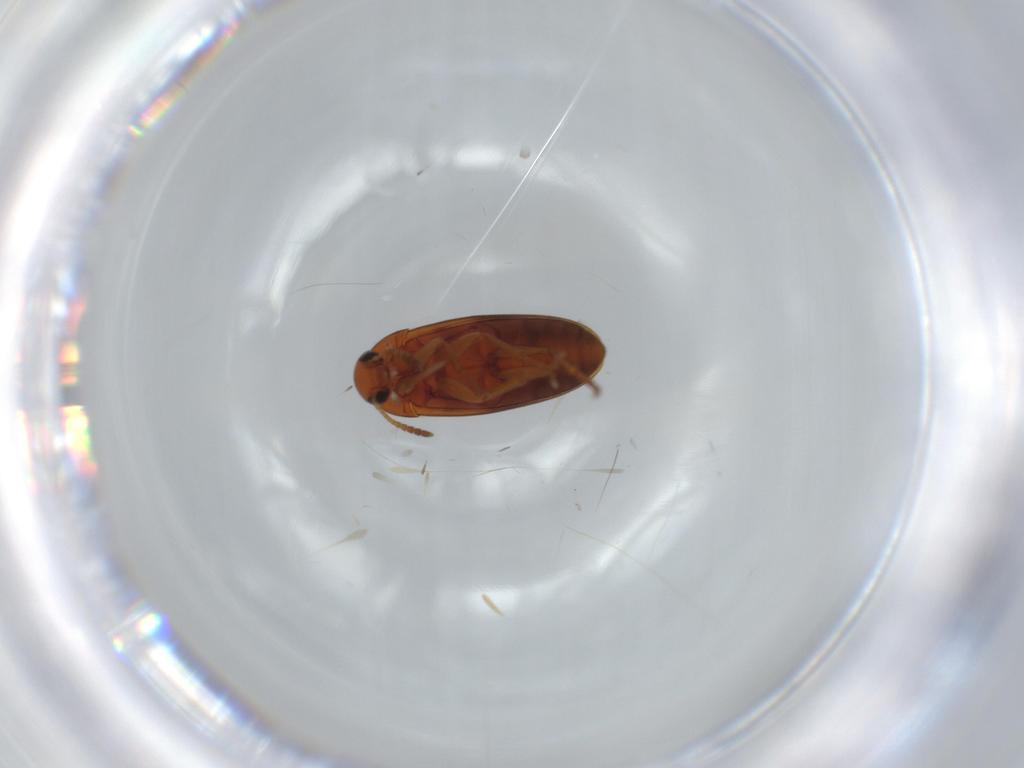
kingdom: Animalia
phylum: Arthropoda
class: Insecta
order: Coleoptera
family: Scraptiidae
